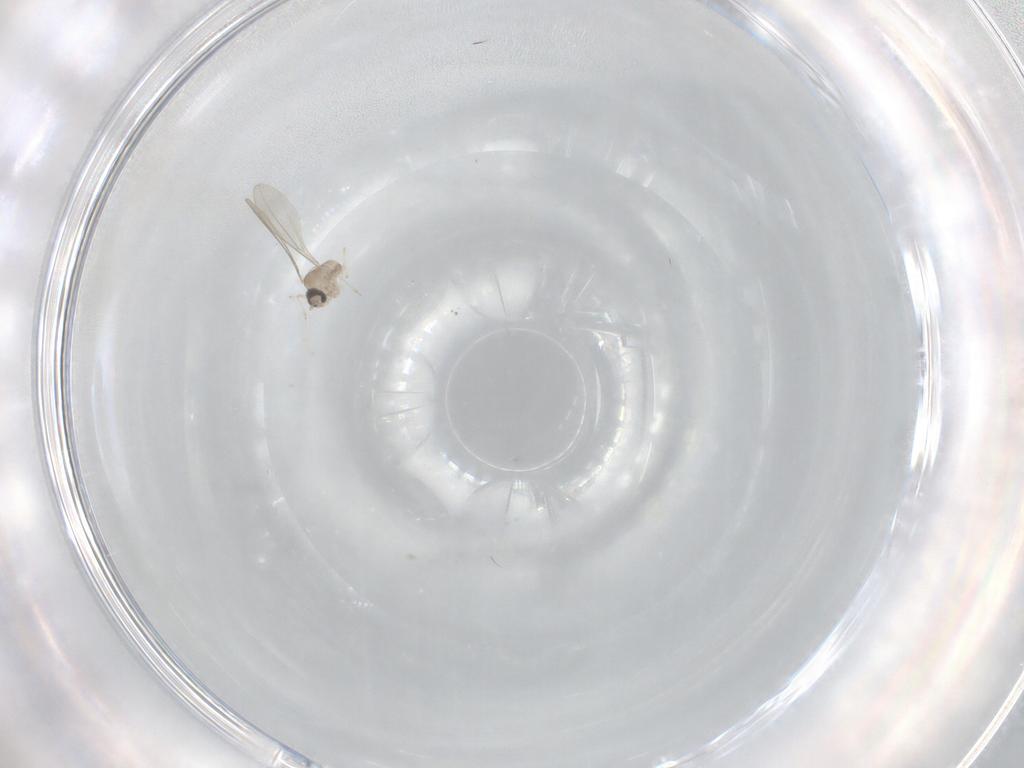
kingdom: Animalia
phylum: Arthropoda
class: Insecta
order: Diptera
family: Cecidomyiidae
